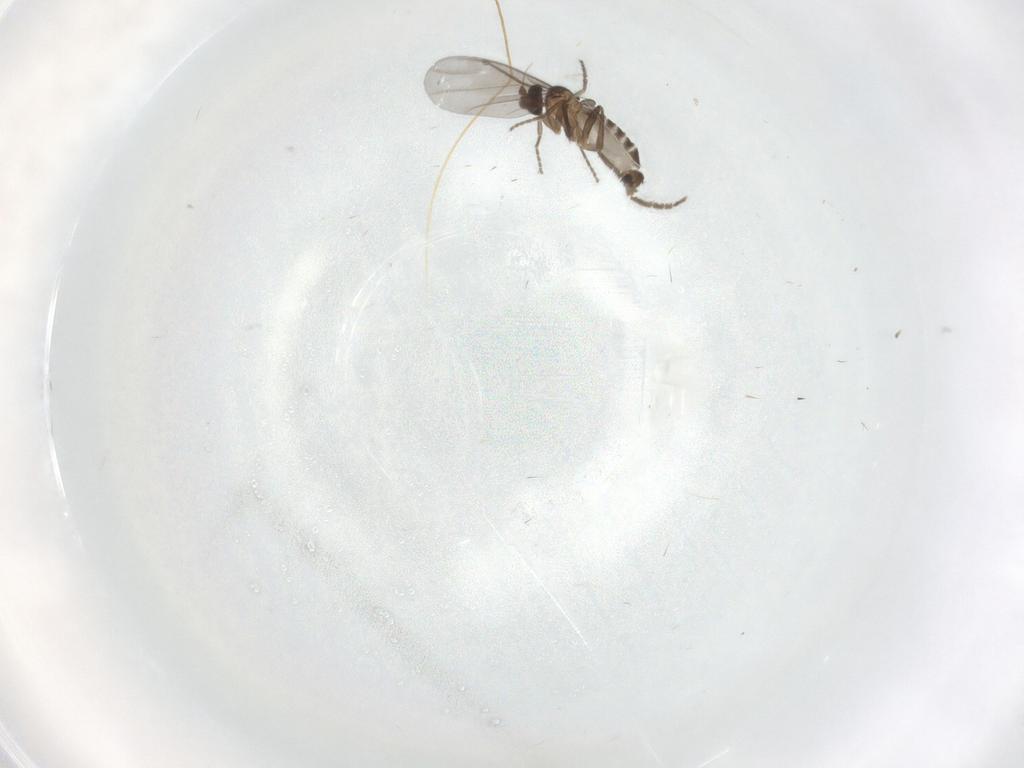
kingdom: Animalia
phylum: Arthropoda
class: Insecta
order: Diptera
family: Phoridae
